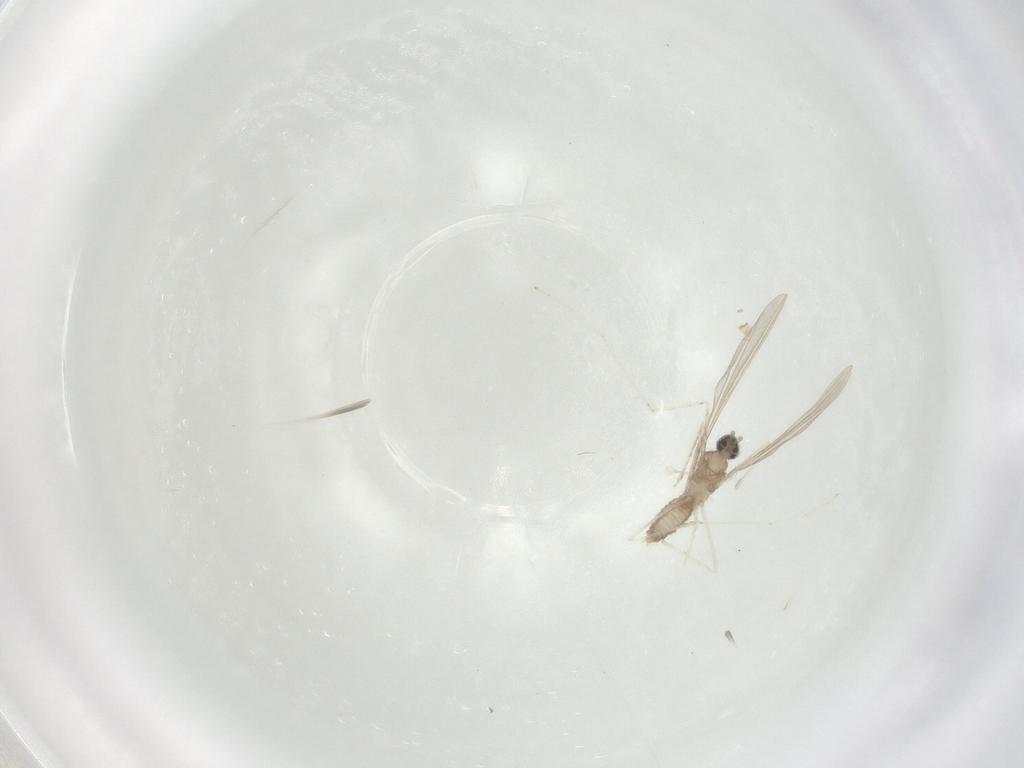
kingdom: Animalia
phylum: Arthropoda
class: Insecta
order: Diptera
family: Cecidomyiidae
